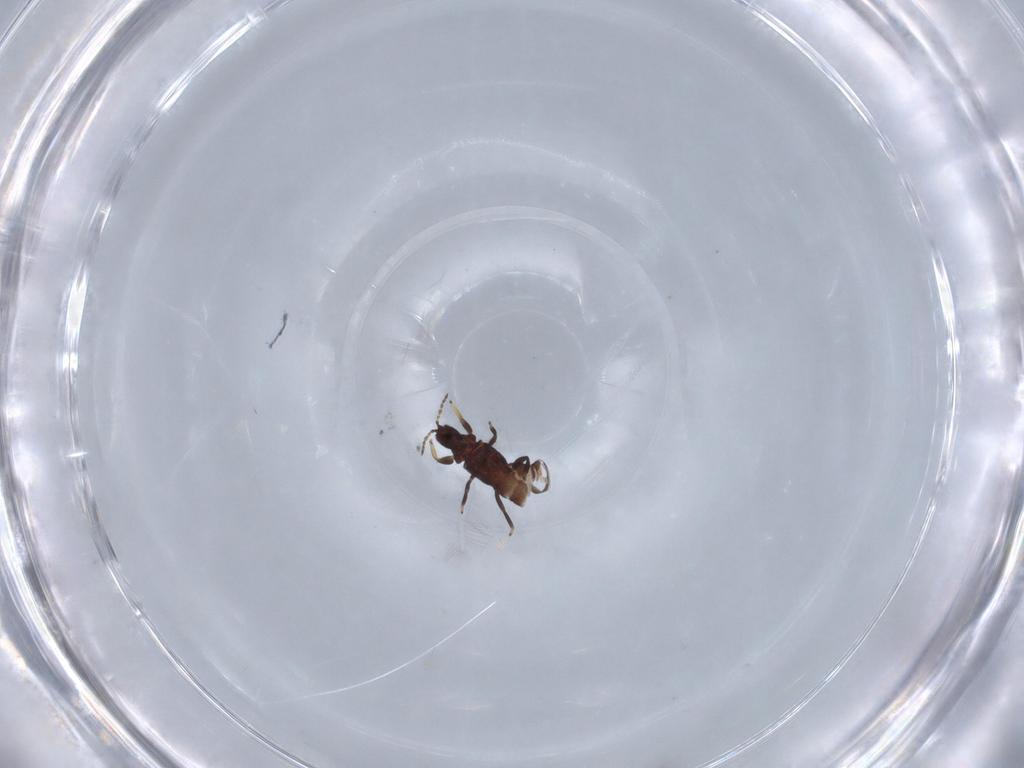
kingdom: Animalia
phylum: Arthropoda
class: Insecta
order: Thysanoptera
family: Phlaeothripidae
